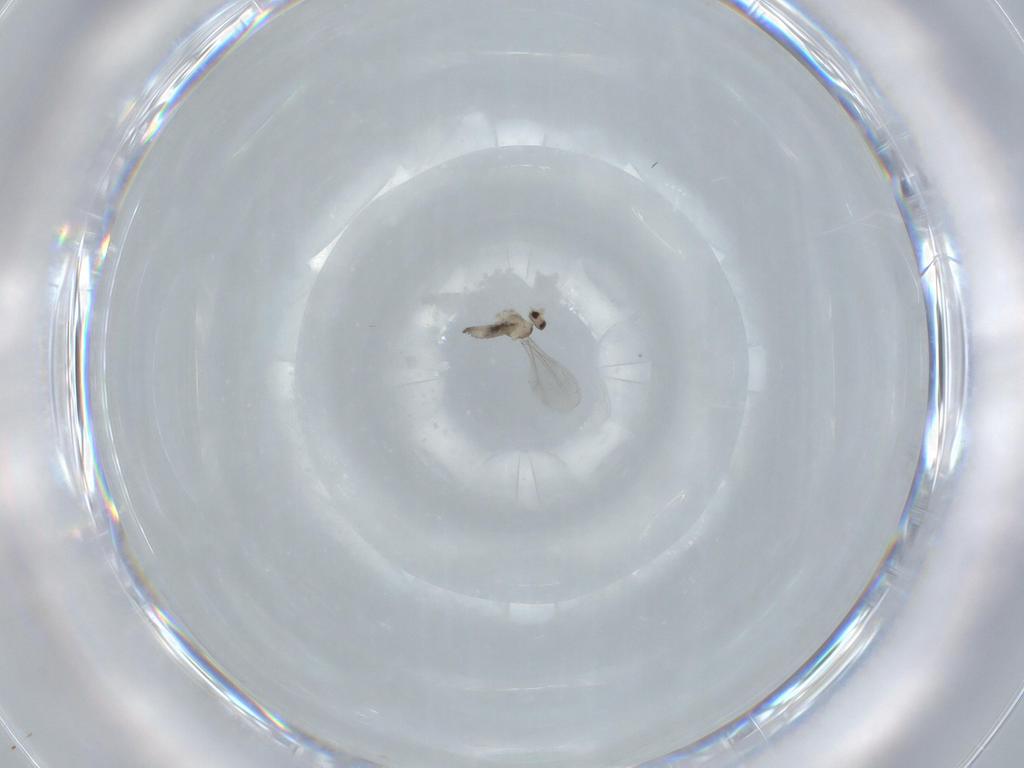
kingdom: Animalia
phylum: Arthropoda
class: Insecta
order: Diptera
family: Cecidomyiidae
